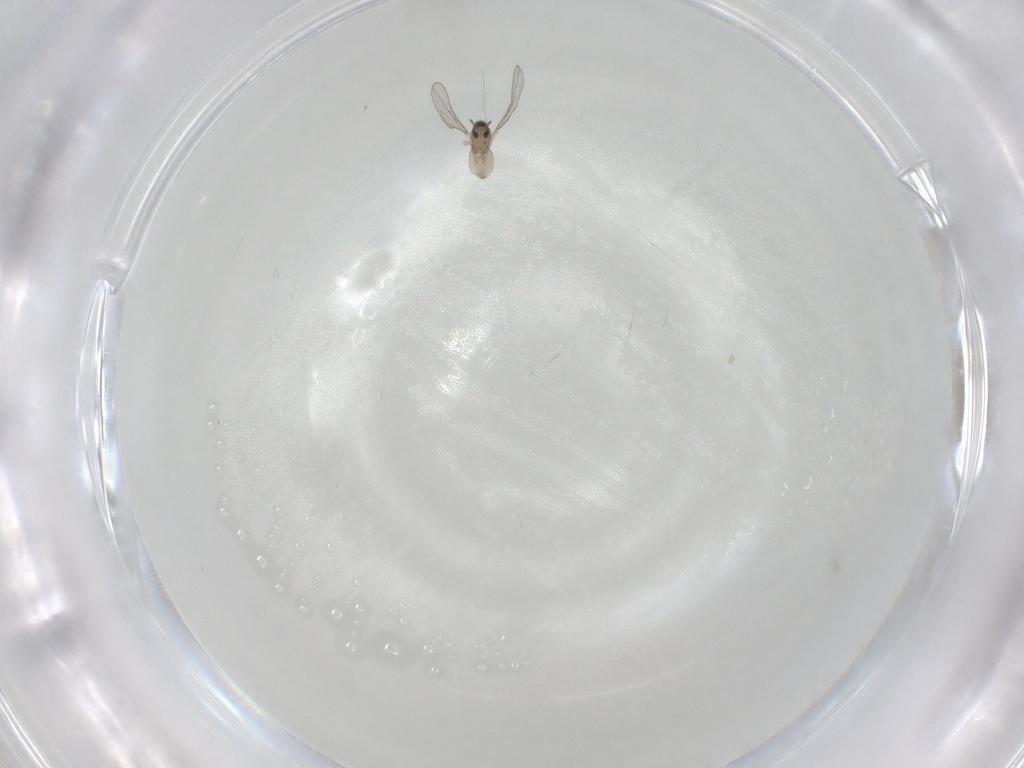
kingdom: Animalia
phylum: Arthropoda
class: Insecta
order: Diptera
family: Cecidomyiidae
